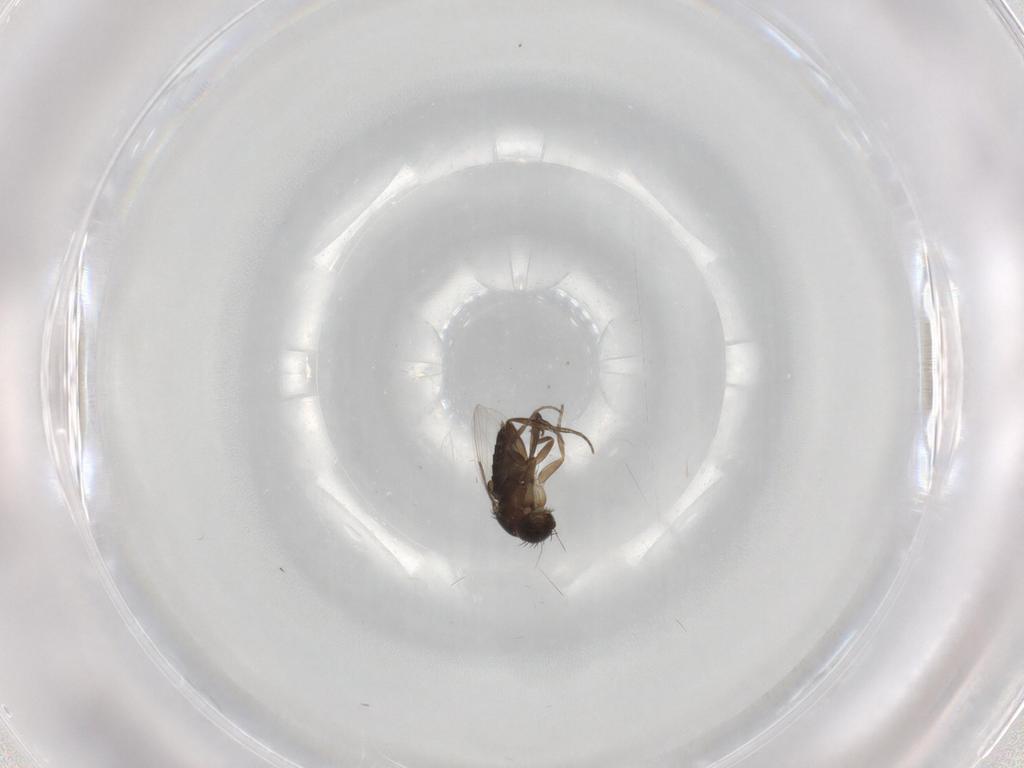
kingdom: Animalia
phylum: Arthropoda
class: Insecta
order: Diptera
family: Phoridae
